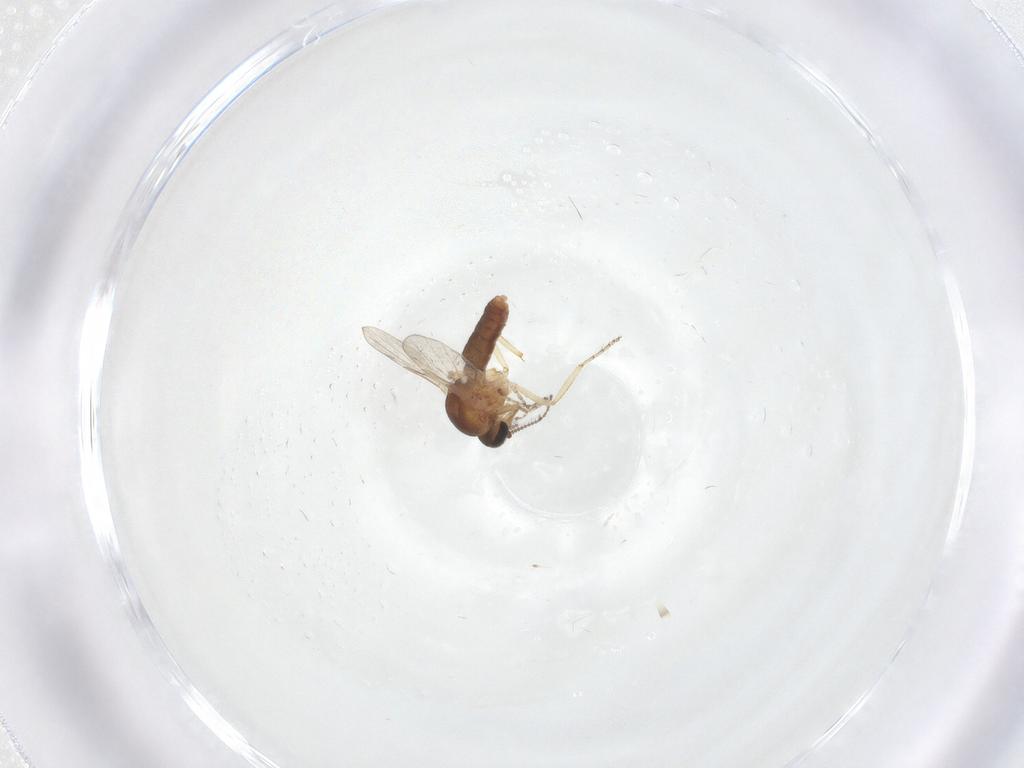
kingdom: Animalia
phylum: Arthropoda
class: Insecta
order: Diptera
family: Ceratopogonidae
